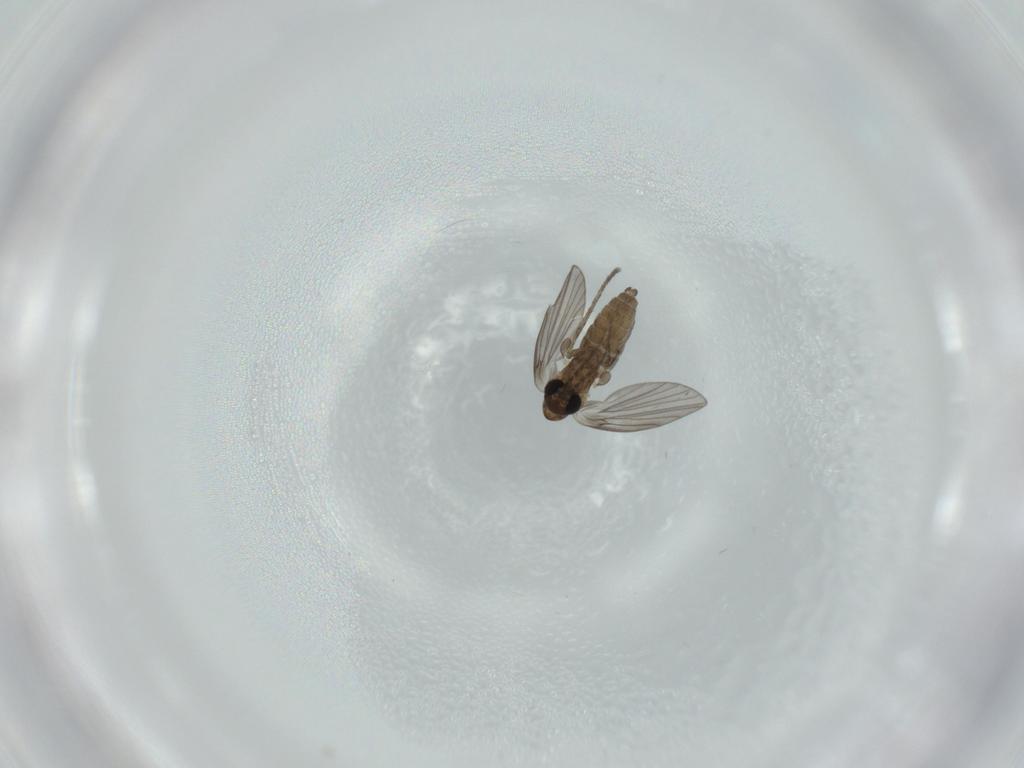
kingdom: Animalia
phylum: Arthropoda
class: Insecta
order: Diptera
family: Psychodidae
